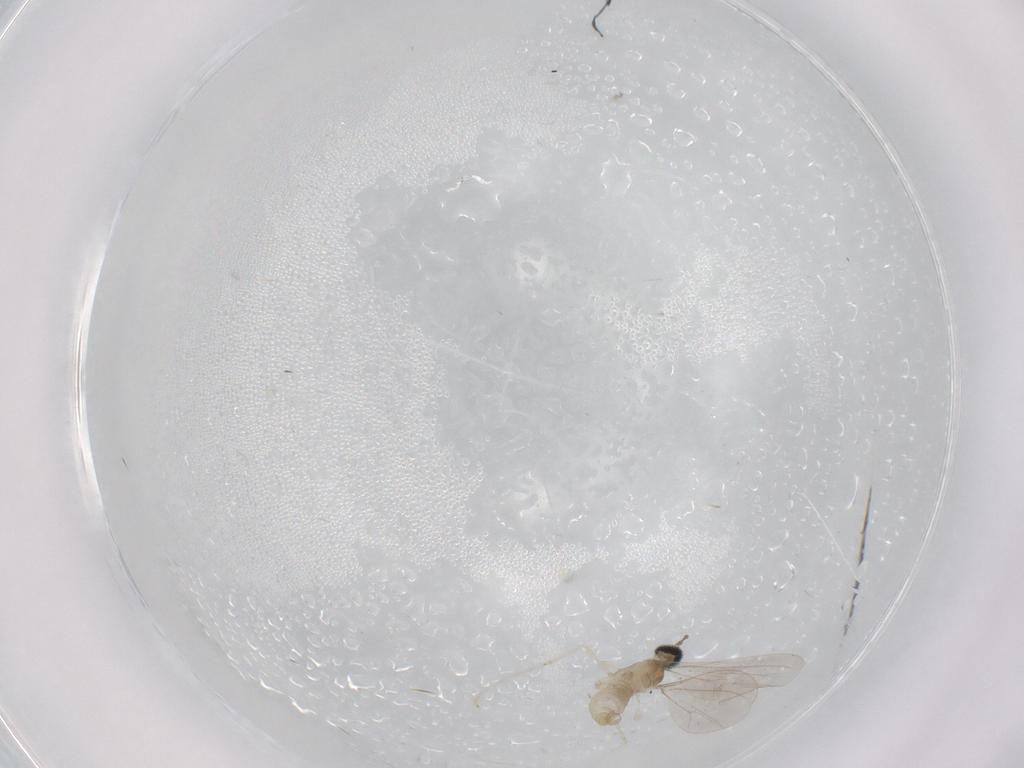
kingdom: Animalia
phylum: Arthropoda
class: Insecta
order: Diptera
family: Cecidomyiidae
